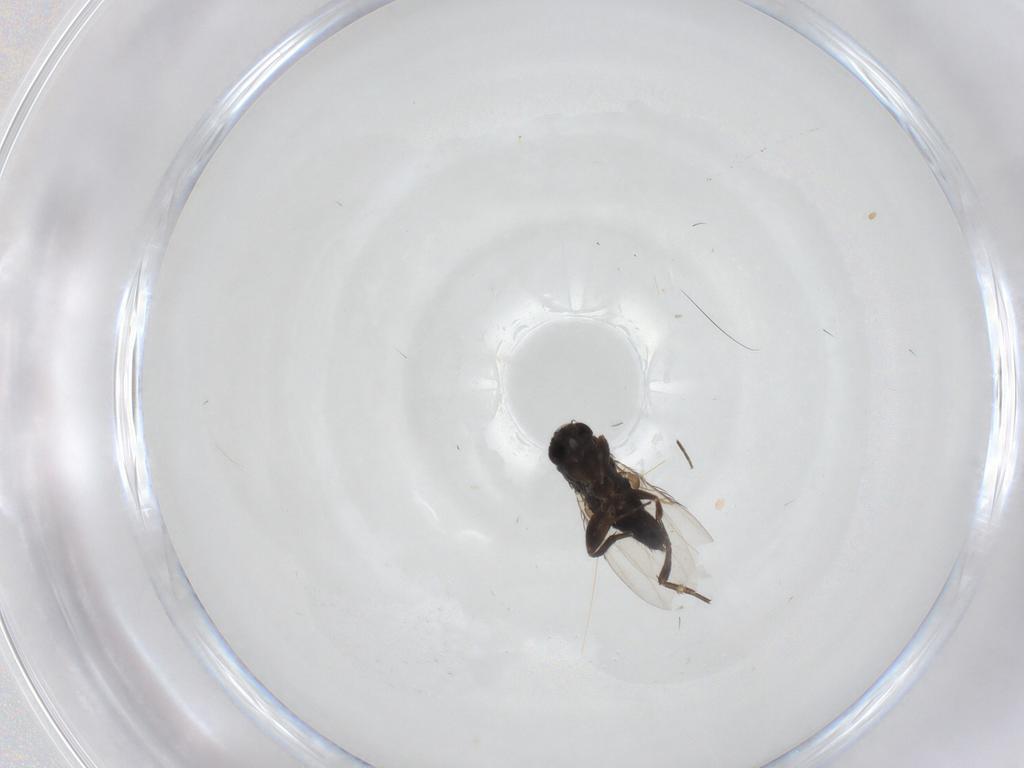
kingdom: Animalia
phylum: Arthropoda
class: Insecta
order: Diptera
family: Phoridae
